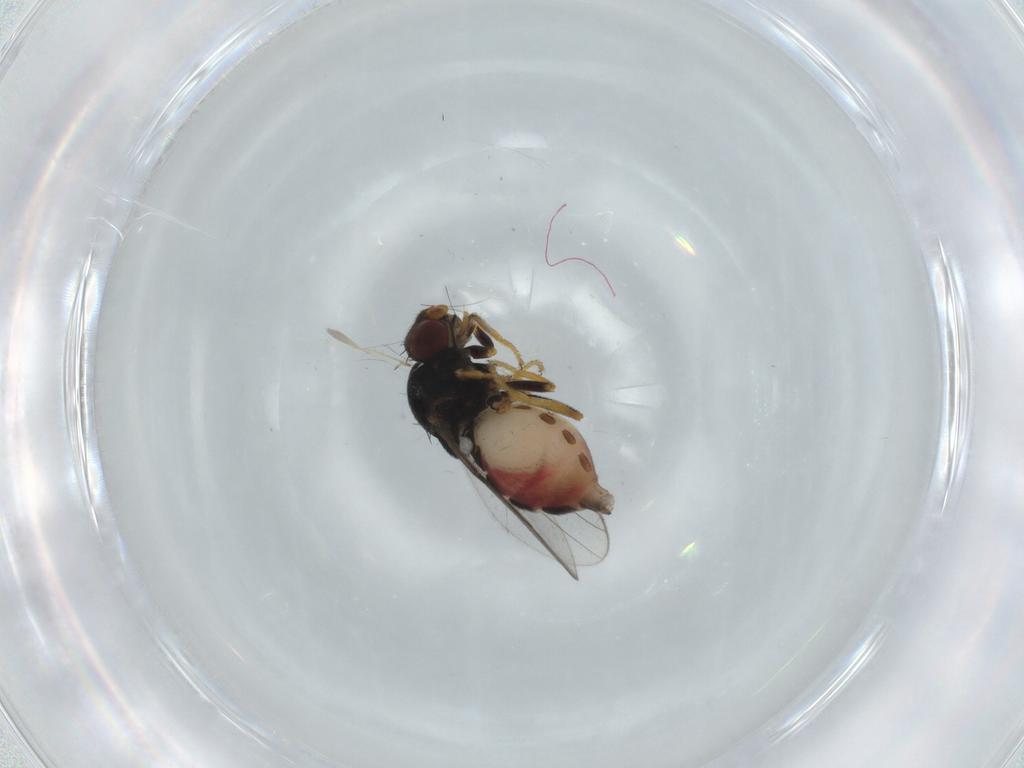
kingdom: Animalia
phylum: Arthropoda
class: Insecta
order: Diptera
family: Chloropidae
